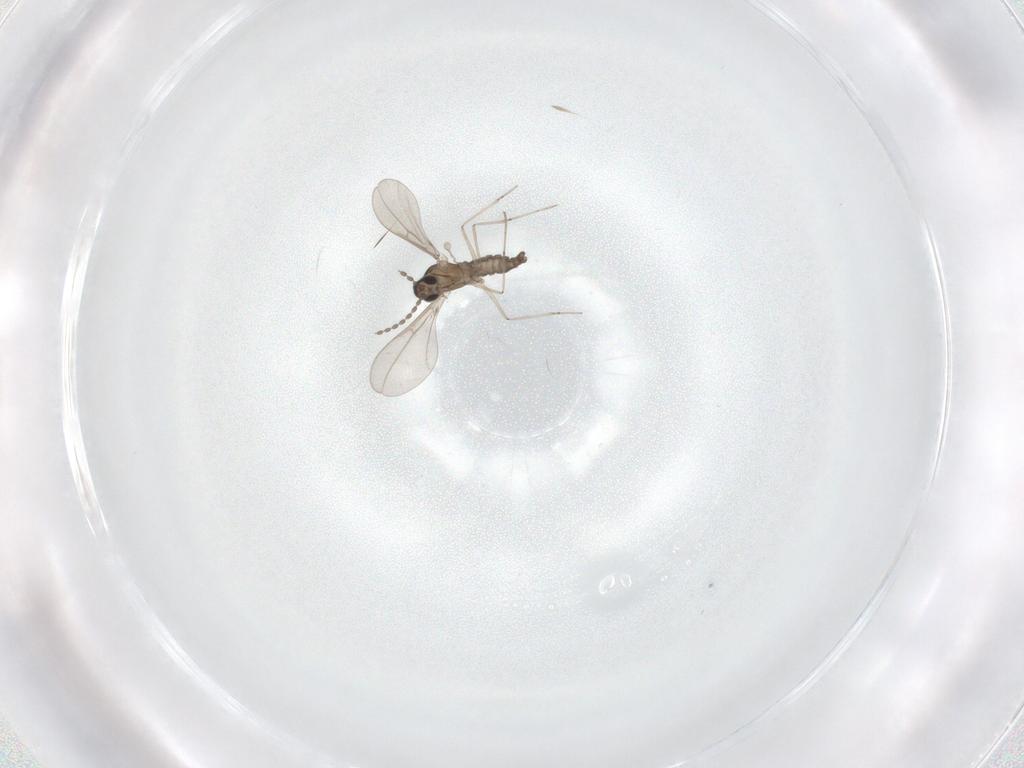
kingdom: Animalia
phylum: Arthropoda
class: Insecta
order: Diptera
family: Cecidomyiidae
